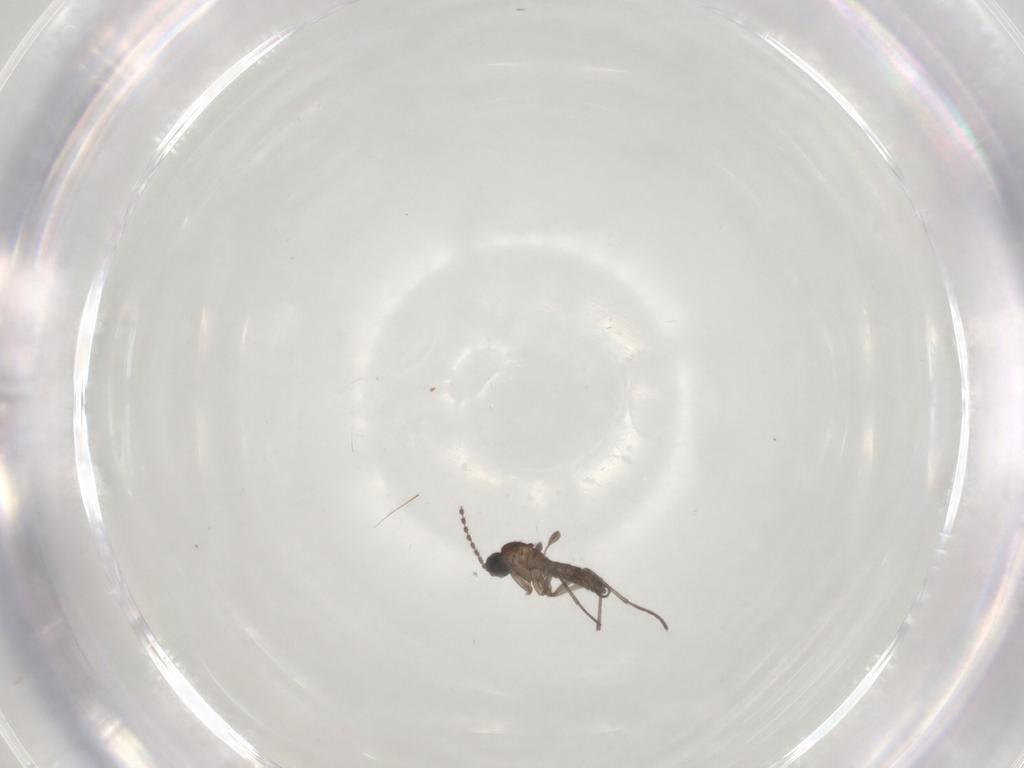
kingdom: Animalia
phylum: Arthropoda
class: Insecta
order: Diptera
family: Sciaridae
